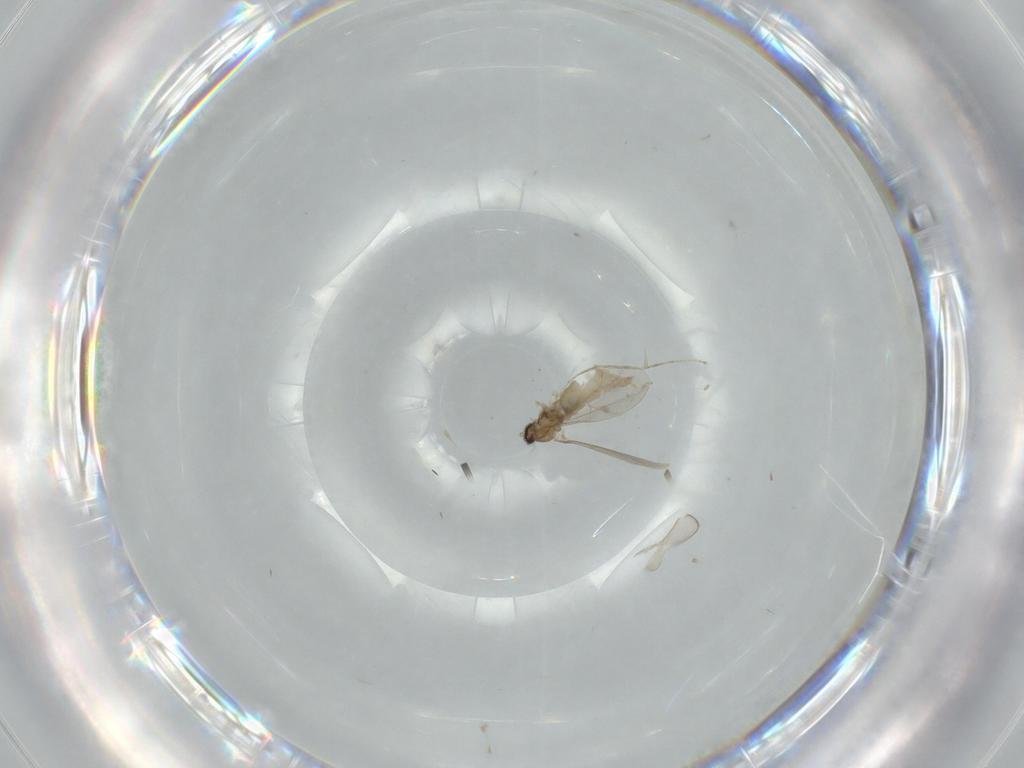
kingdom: Animalia
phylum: Arthropoda
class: Insecta
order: Diptera
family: Cecidomyiidae
